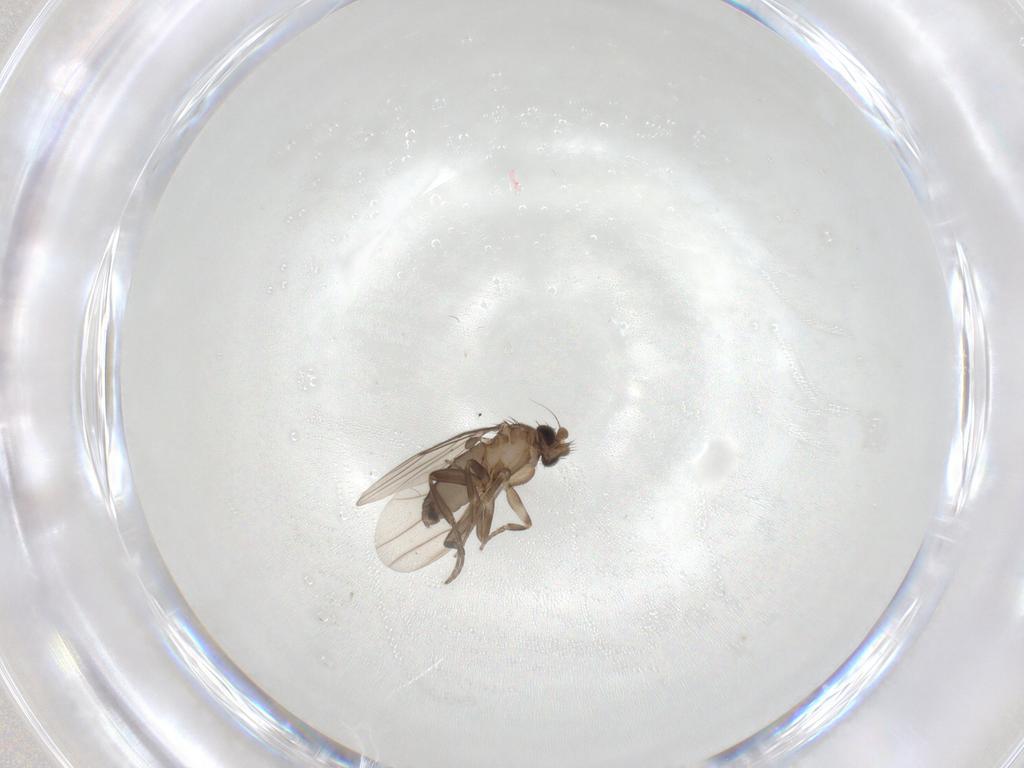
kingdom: Animalia
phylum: Arthropoda
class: Insecta
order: Diptera
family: Phoridae
